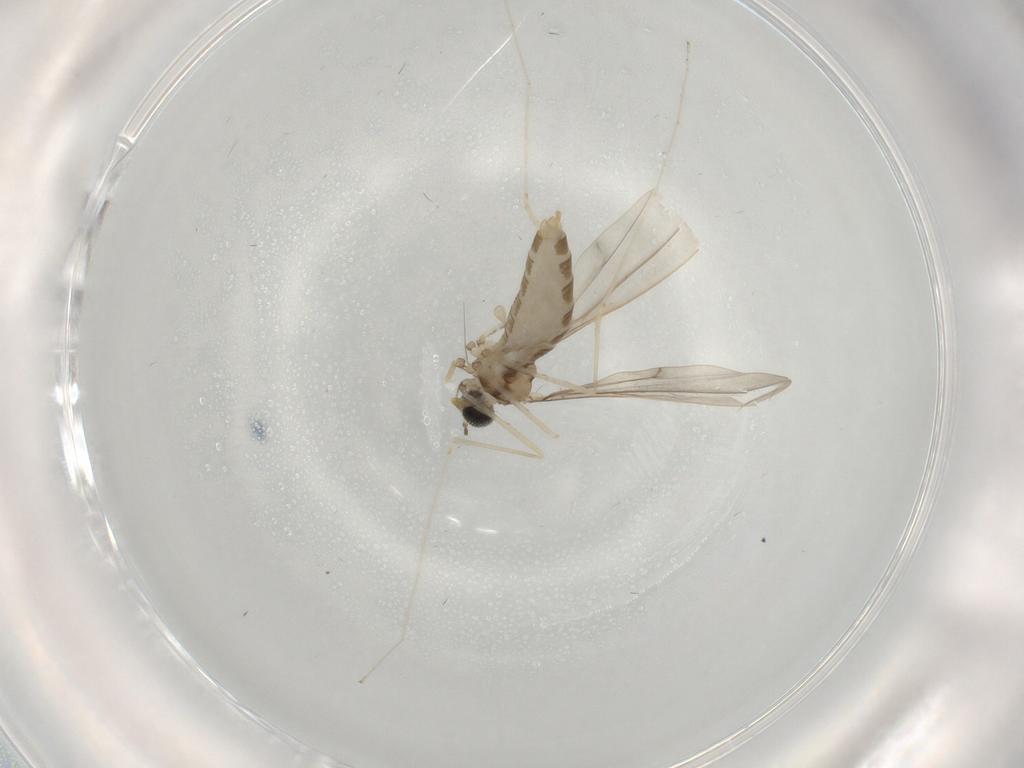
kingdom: Animalia
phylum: Arthropoda
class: Insecta
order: Diptera
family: Cecidomyiidae
